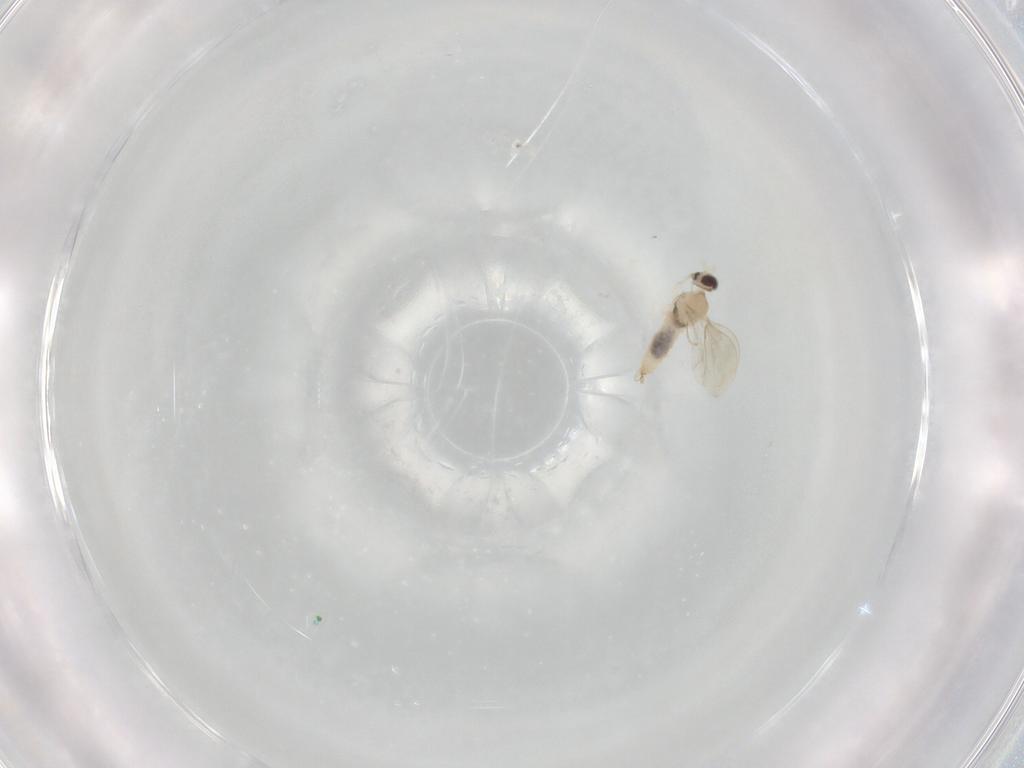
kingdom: Animalia
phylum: Arthropoda
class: Insecta
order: Diptera
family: Cecidomyiidae
